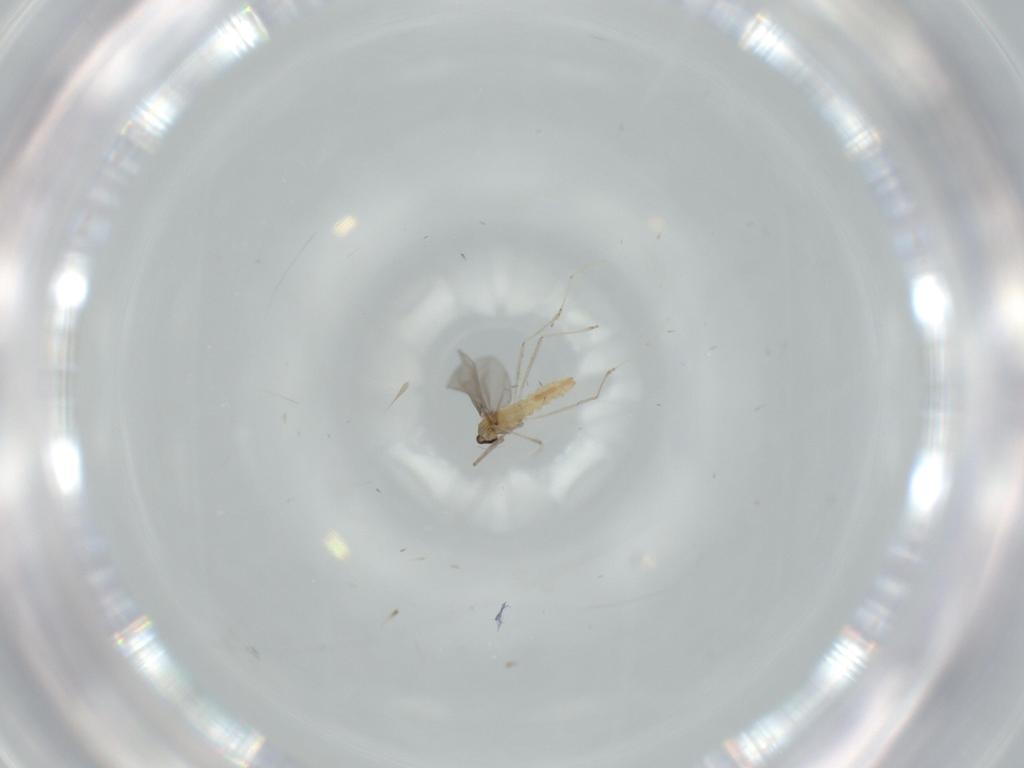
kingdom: Animalia
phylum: Arthropoda
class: Insecta
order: Diptera
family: Cecidomyiidae
